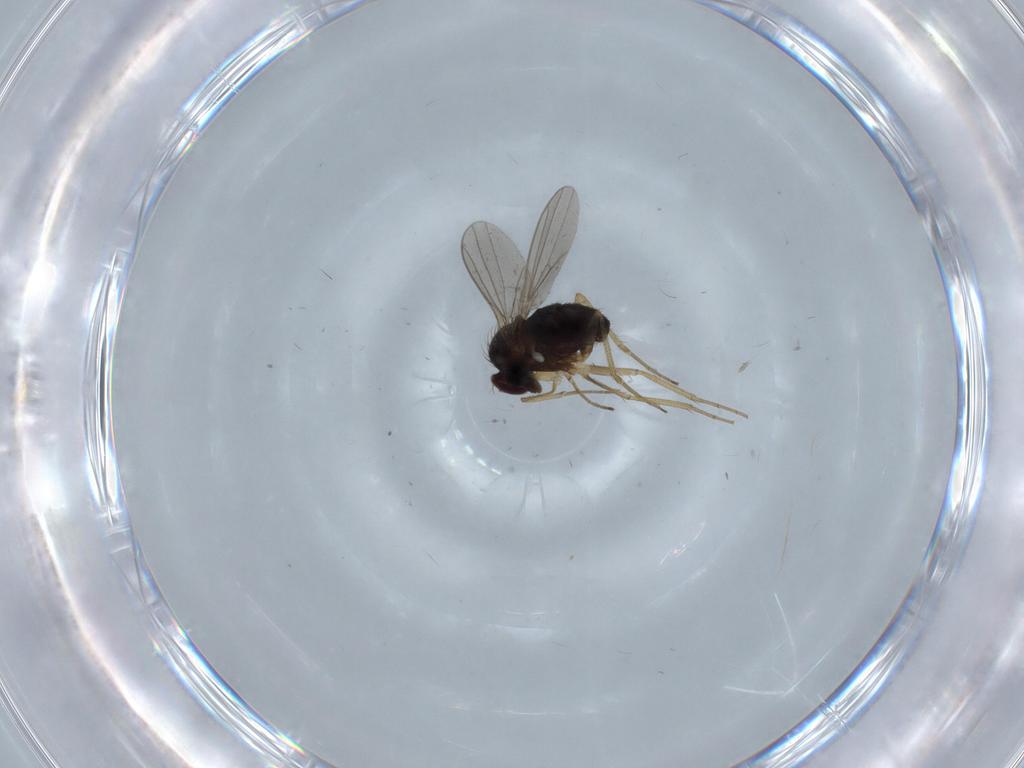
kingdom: Animalia
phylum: Arthropoda
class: Insecta
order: Diptera
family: Dolichopodidae
